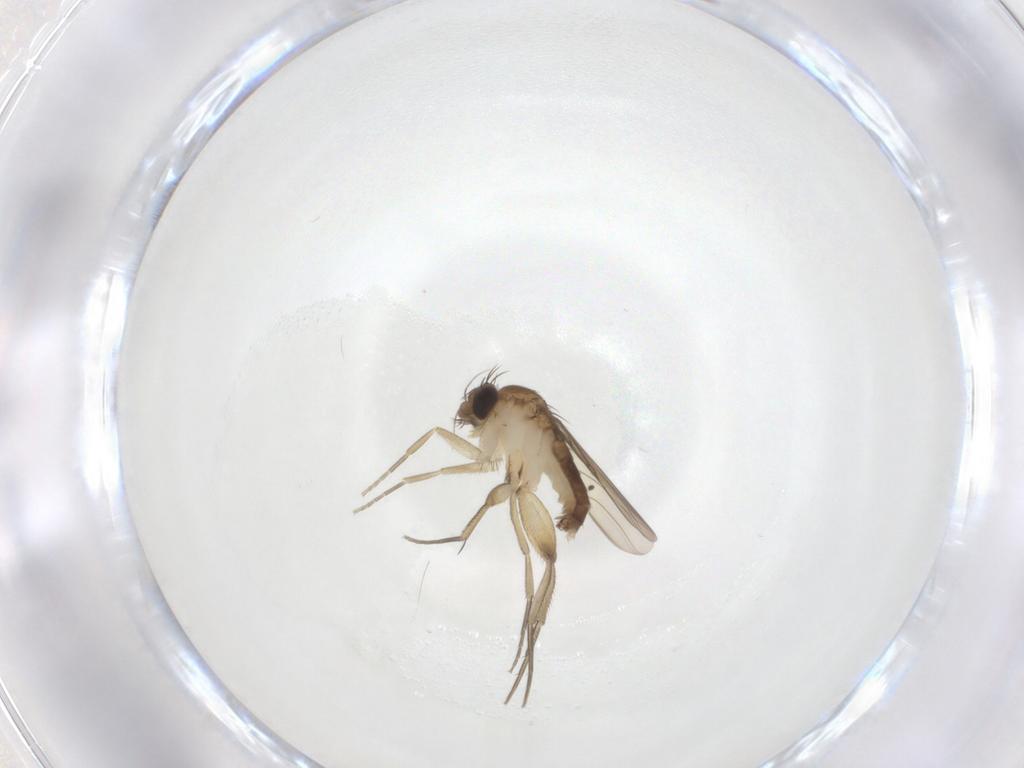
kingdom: Animalia
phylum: Arthropoda
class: Insecta
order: Diptera
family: Phoridae
